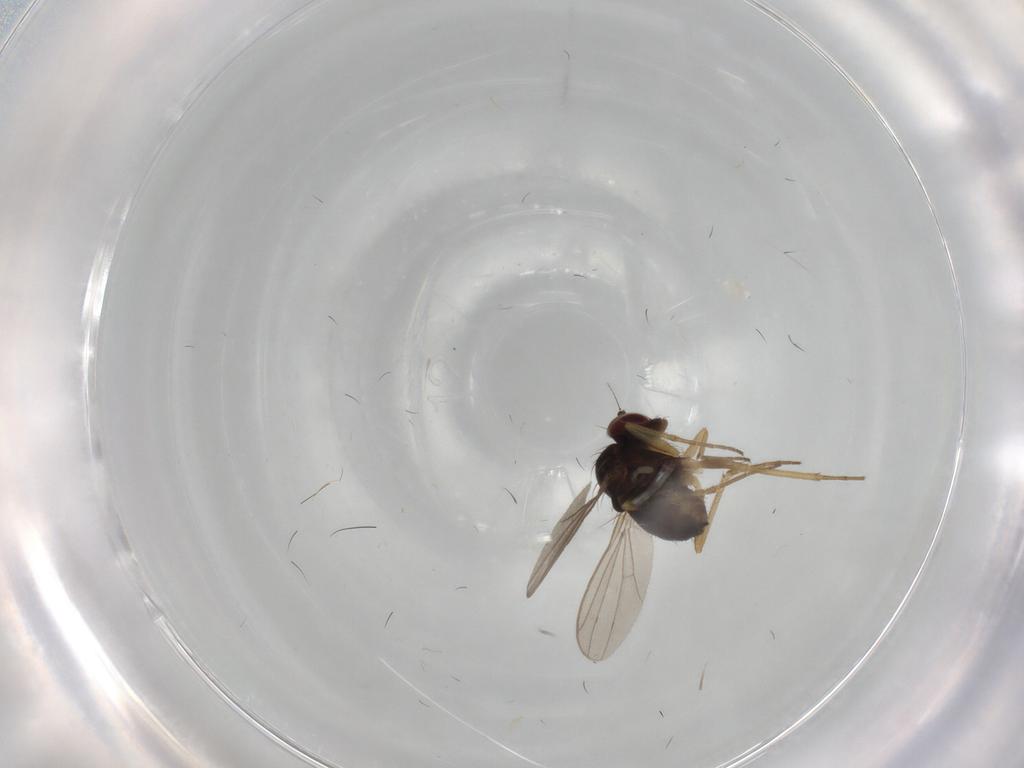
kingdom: Animalia
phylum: Arthropoda
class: Insecta
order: Diptera
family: Dolichopodidae
